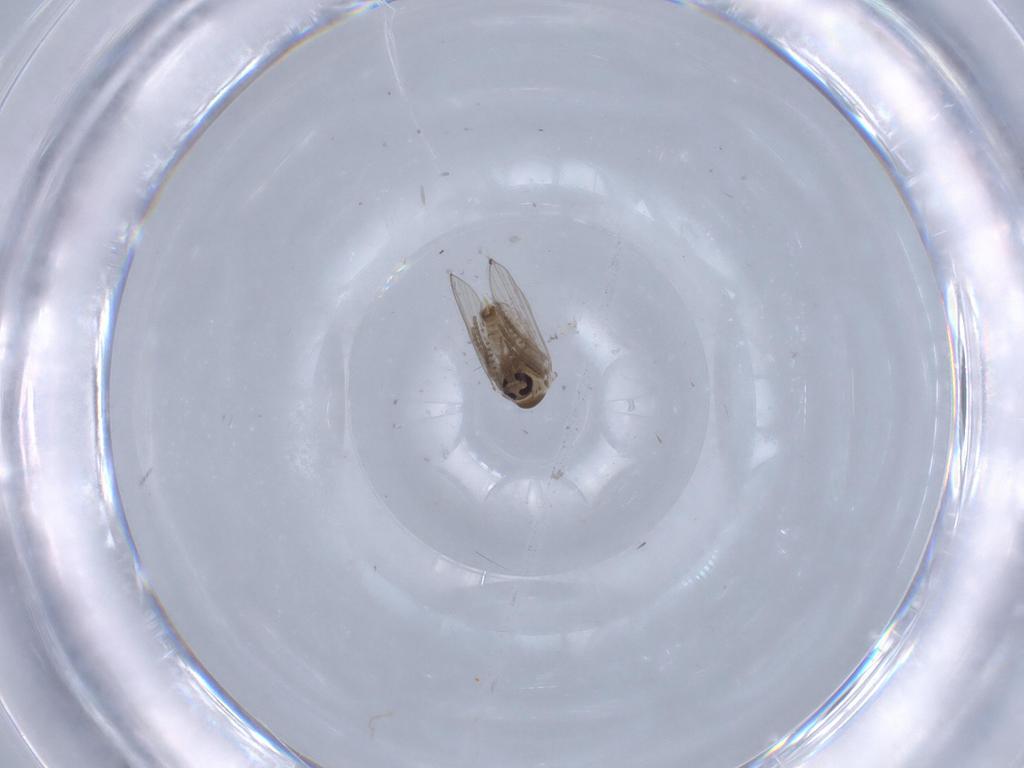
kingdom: Animalia
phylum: Arthropoda
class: Insecta
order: Diptera
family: Psychodidae
